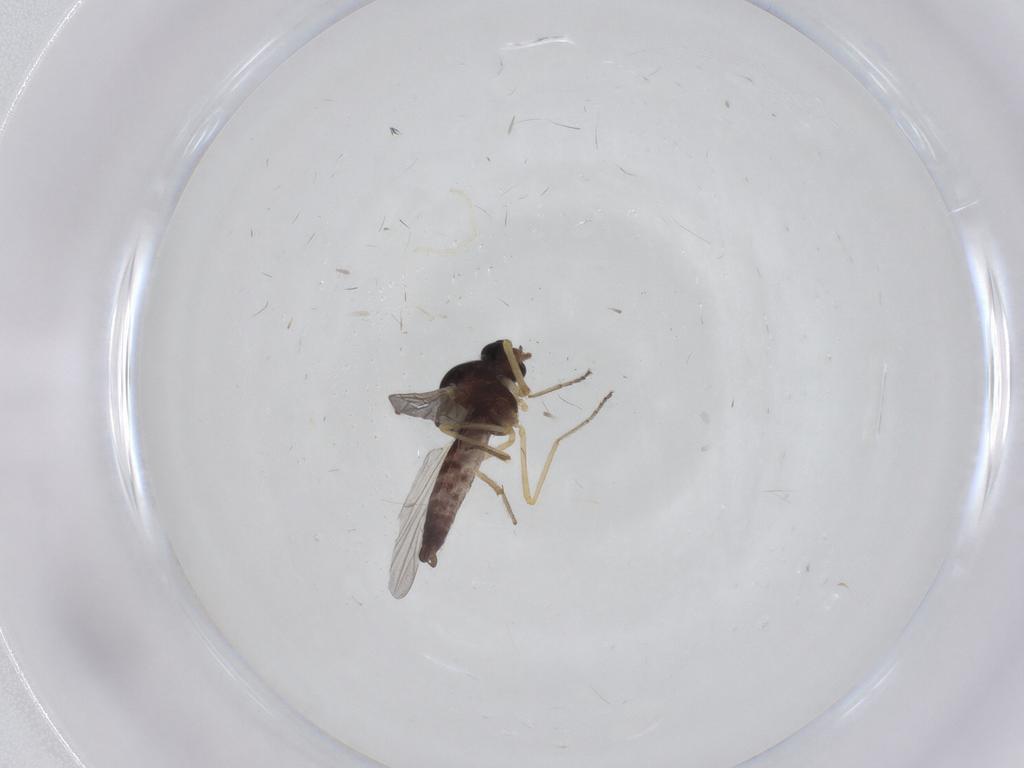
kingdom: Animalia
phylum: Arthropoda
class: Insecta
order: Diptera
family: Ceratopogonidae
